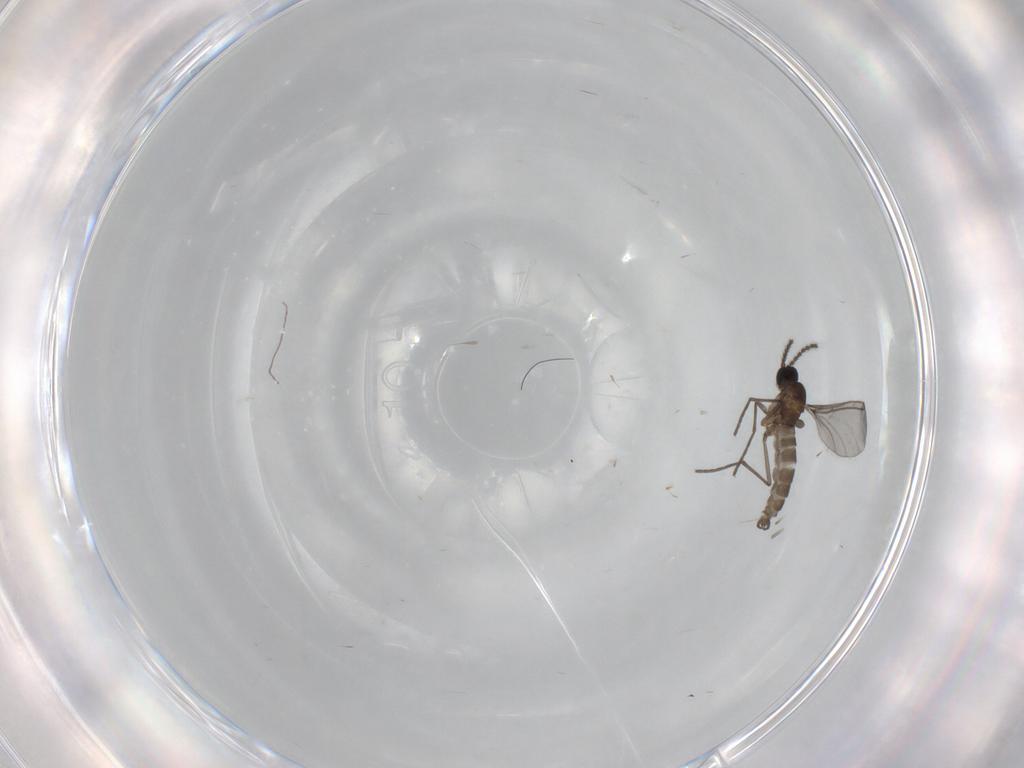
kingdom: Animalia
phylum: Arthropoda
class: Insecta
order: Diptera
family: Sciaridae
